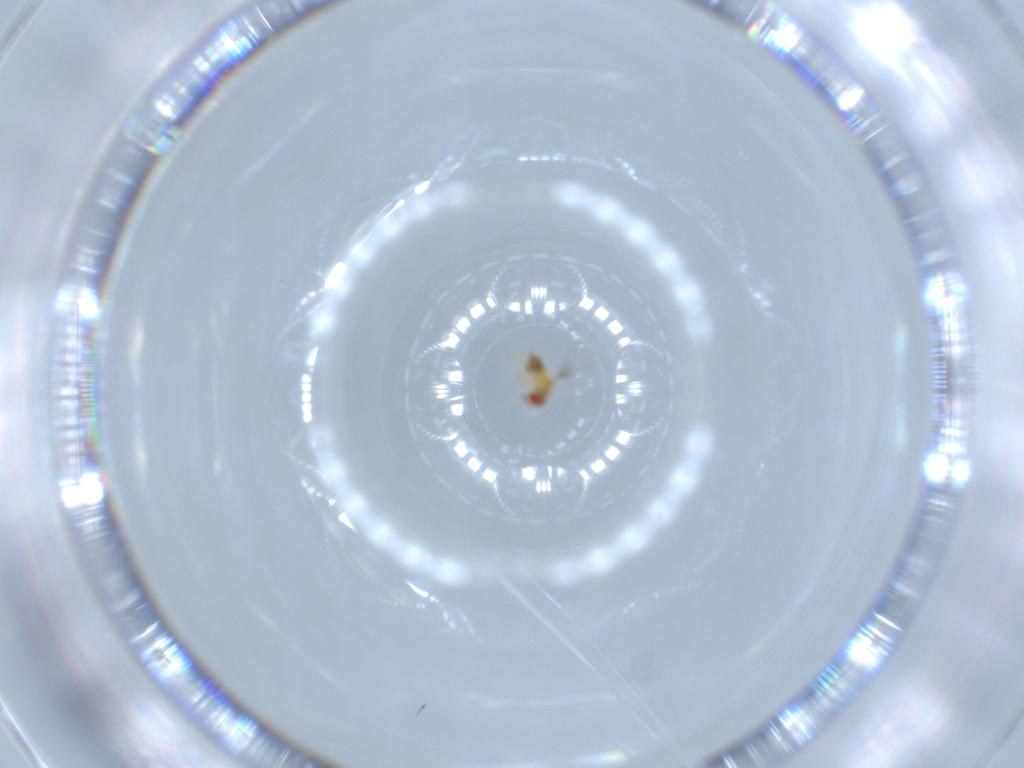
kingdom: Animalia
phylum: Arthropoda
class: Insecta
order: Hymenoptera
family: Trichogrammatidae
